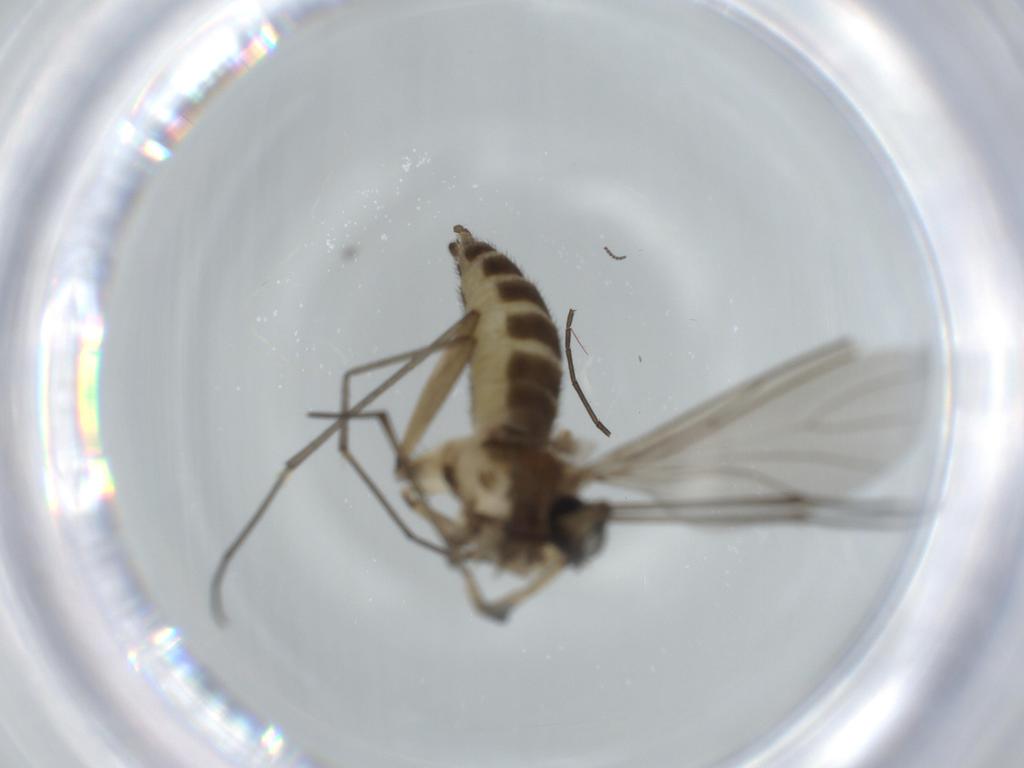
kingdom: Animalia
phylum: Arthropoda
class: Insecta
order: Diptera
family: Sciaridae
